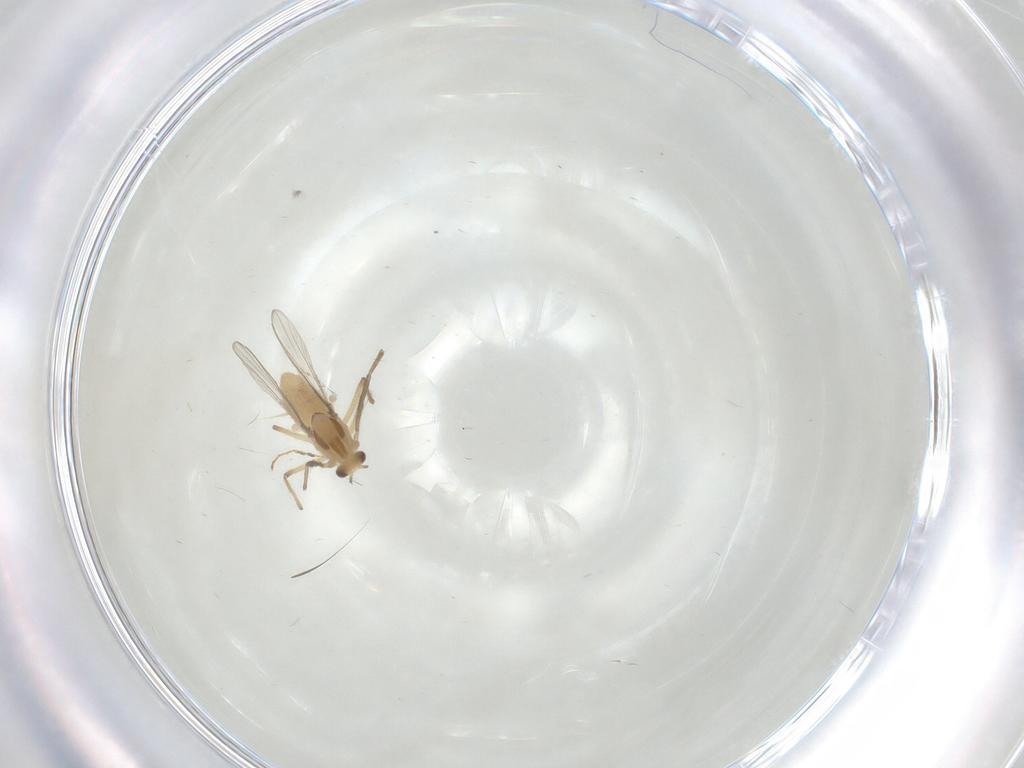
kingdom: Animalia
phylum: Arthropoda
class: Insecta
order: Diptera
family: Chironomidae
